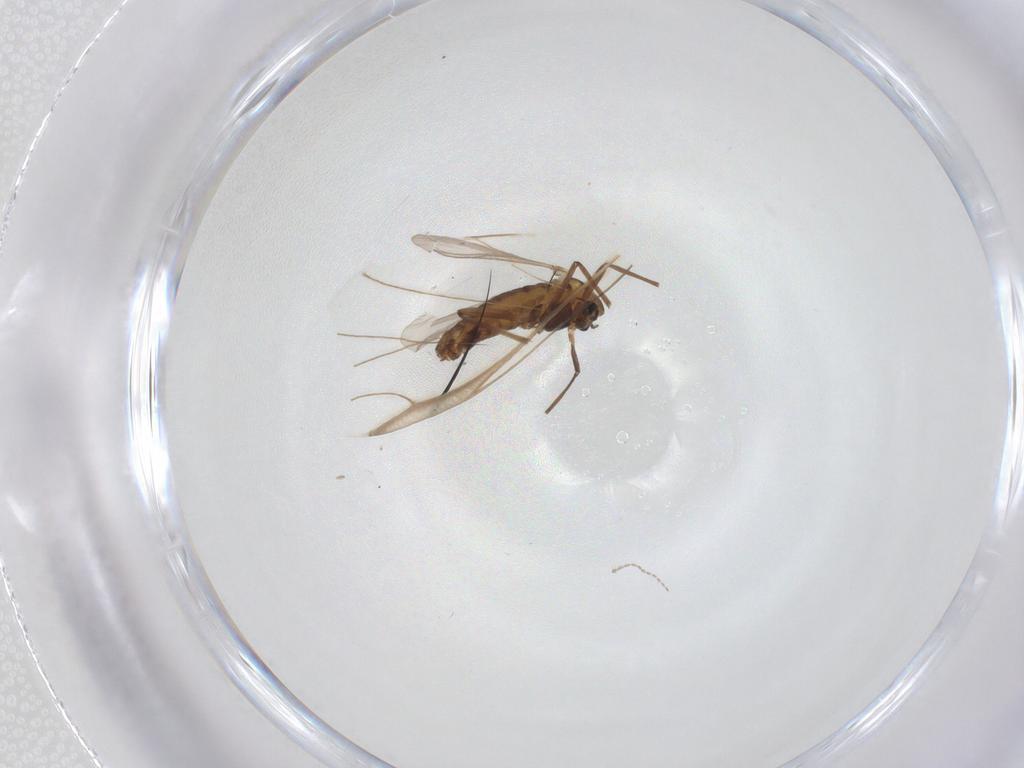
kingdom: Animalia
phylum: Arthropoda
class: Insecta
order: Diptera
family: Chironomidae
